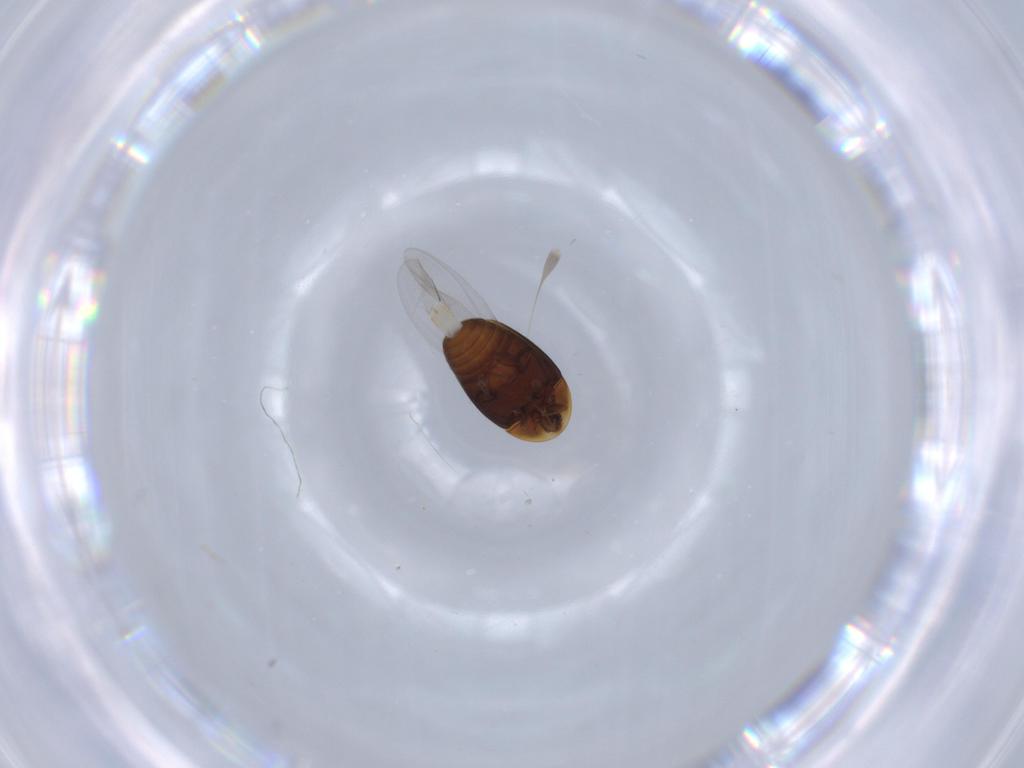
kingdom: Animalia
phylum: Arthropoda
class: Insecta
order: Coleoptera
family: Corylophidae
